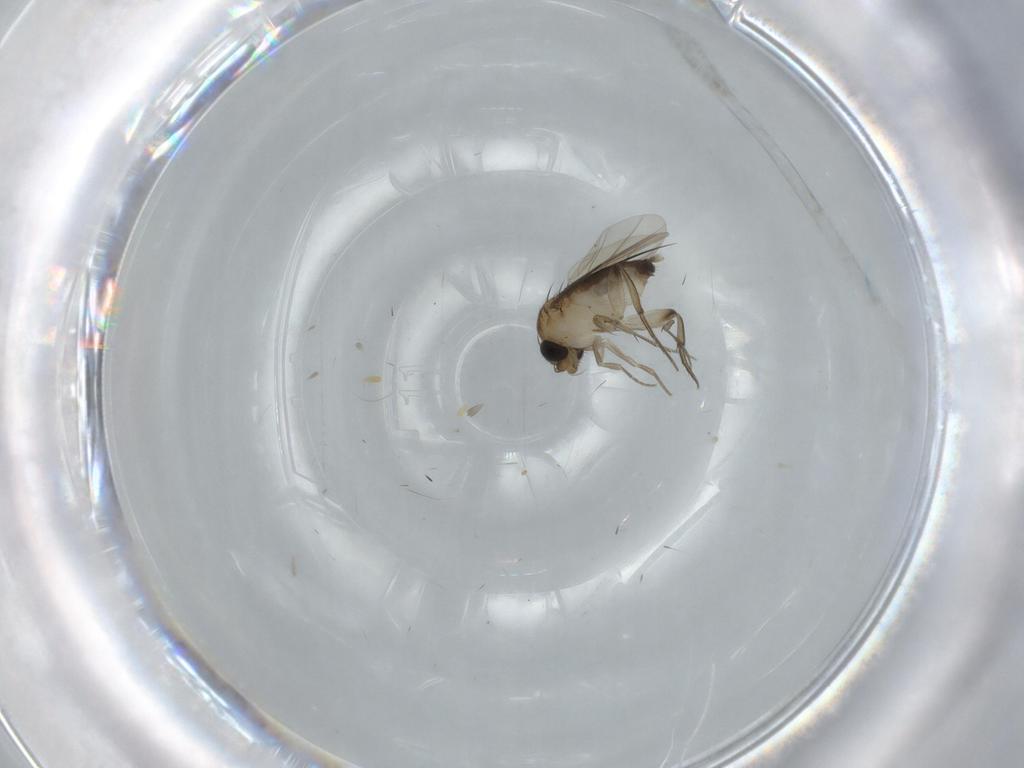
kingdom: Animalia
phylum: Arthropoda
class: Insecta
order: Diptera
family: Phoridae
